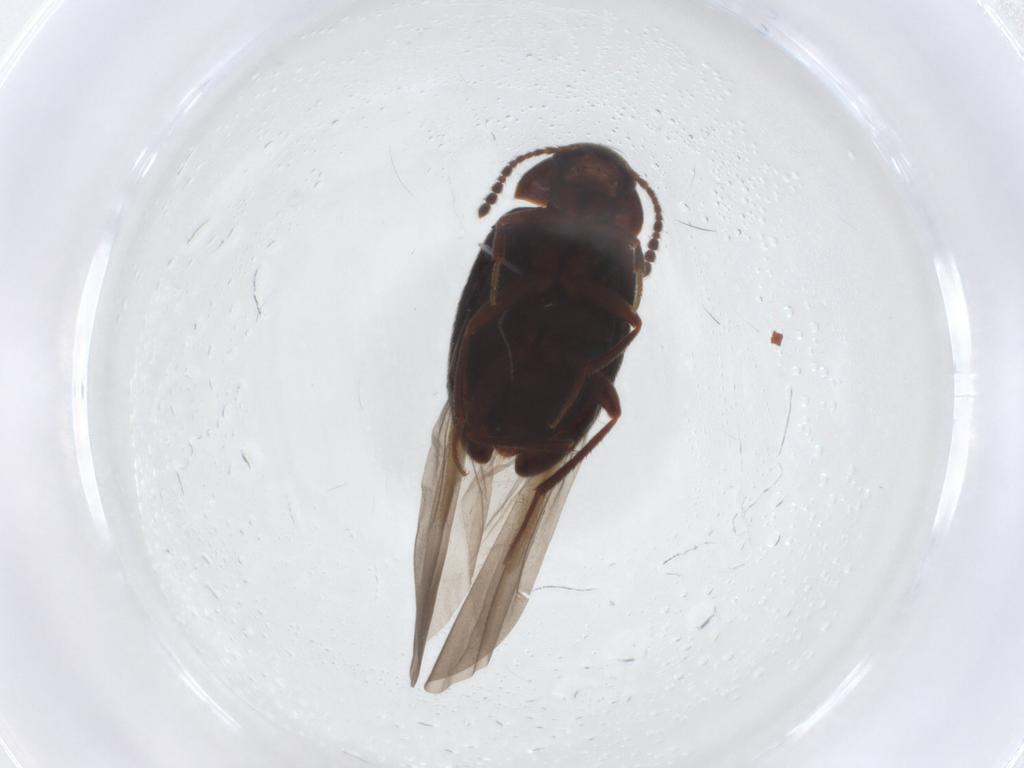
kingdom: Animalia
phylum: Arthropoda
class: Insecta
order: Coleoptera
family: Leiodidae
